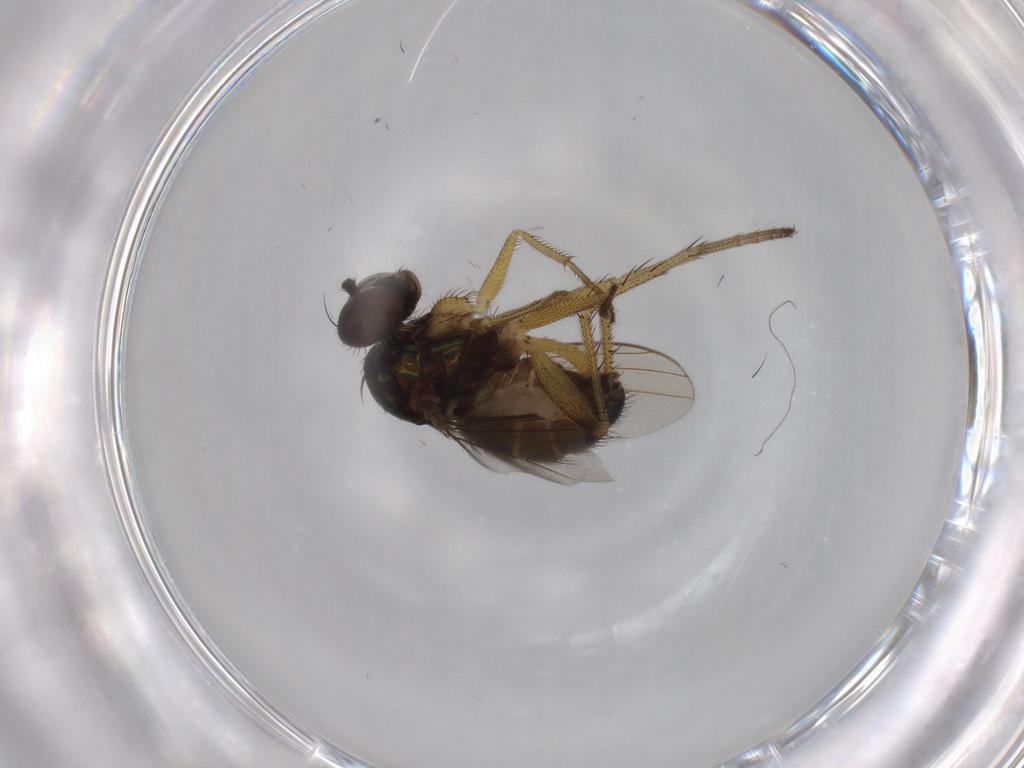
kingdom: Animalia
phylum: Arthropoda
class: Insecta
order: Diptera
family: Dolichopodidae
